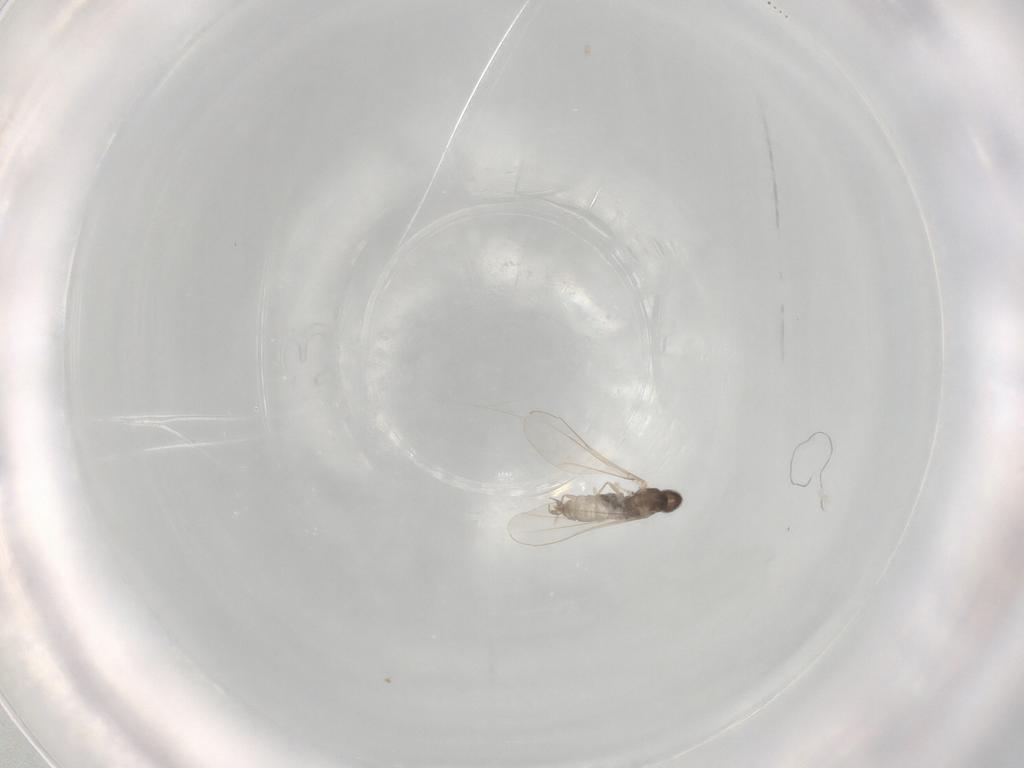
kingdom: Animalia
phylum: Arthropoda
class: Insecta
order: Diptera
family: Cecidomyiidae
